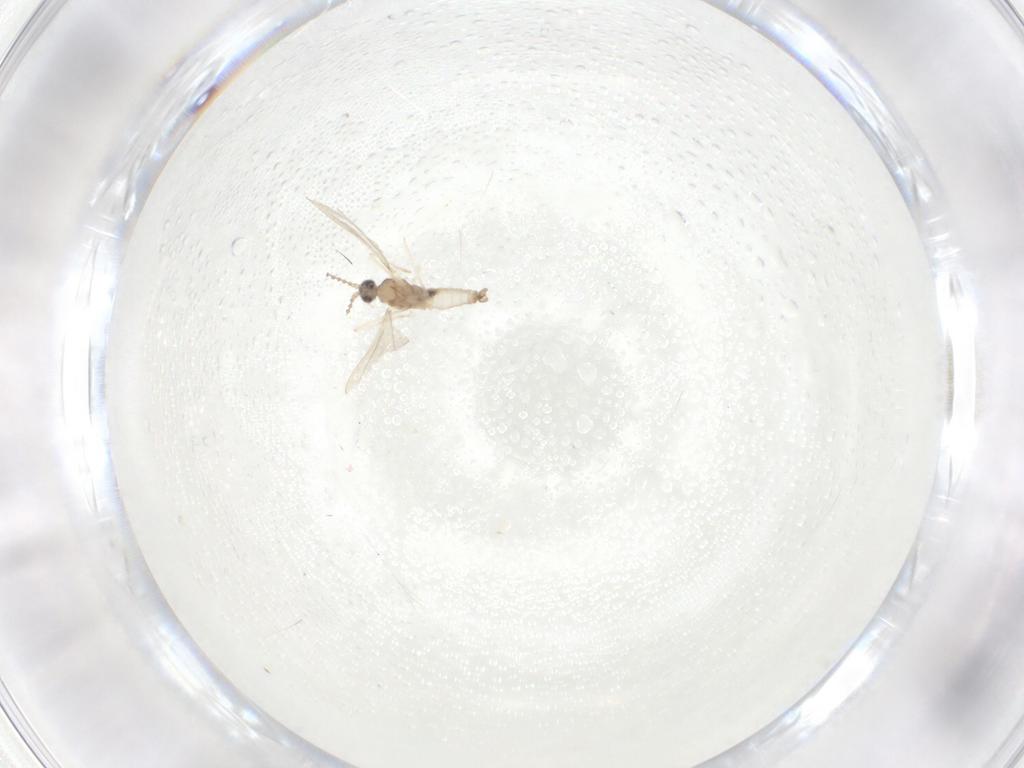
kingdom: Animalia
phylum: Arthropoda
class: Insecta
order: Diptera
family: Cecidomyiidae
